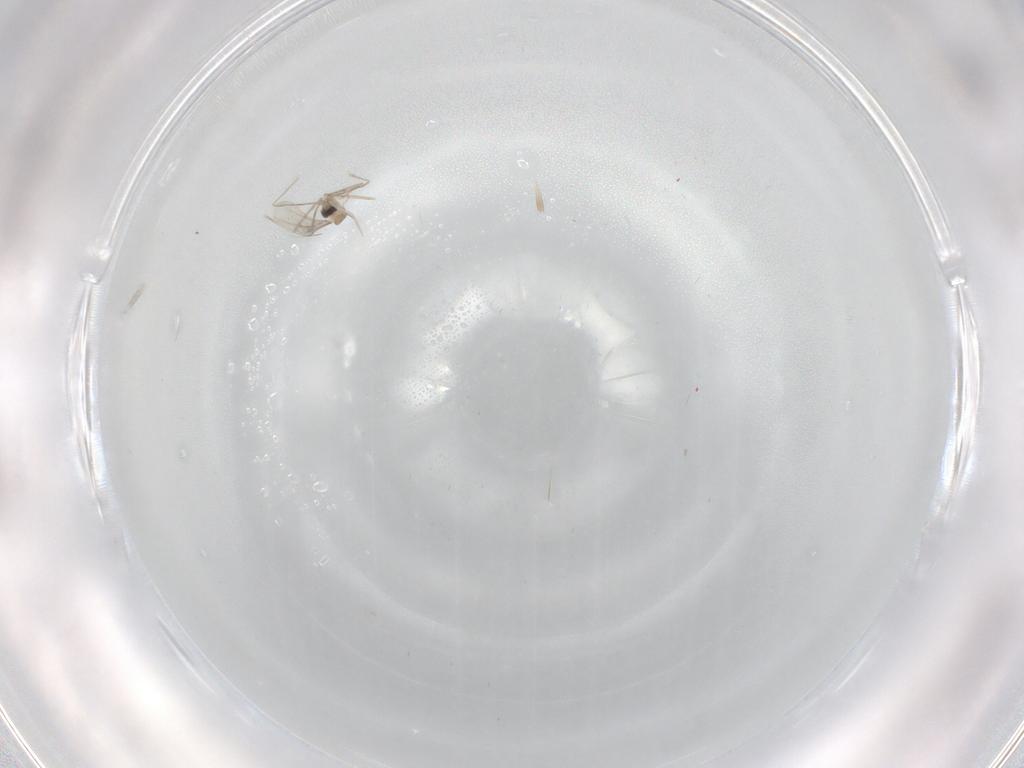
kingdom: Animalia
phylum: Arthropoda
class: Insecta
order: Diptera
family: Cecidomyiidae
